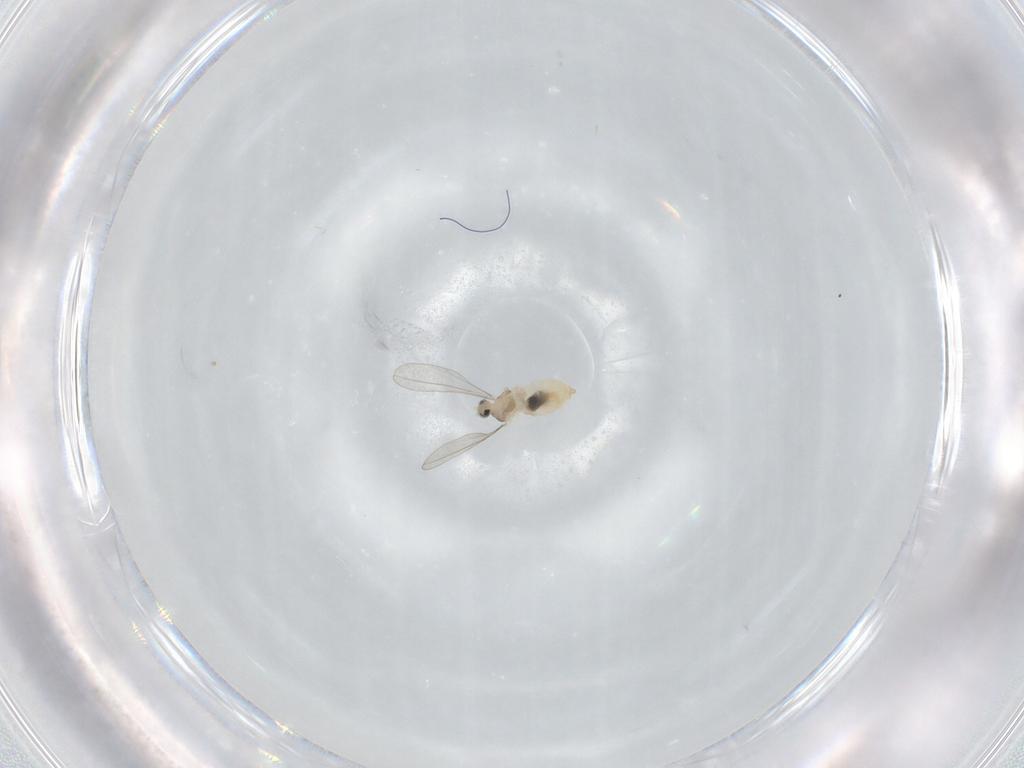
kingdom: Animalia
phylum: Arthropoda
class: Insecta
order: Diptera
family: Cecidomyiidae
